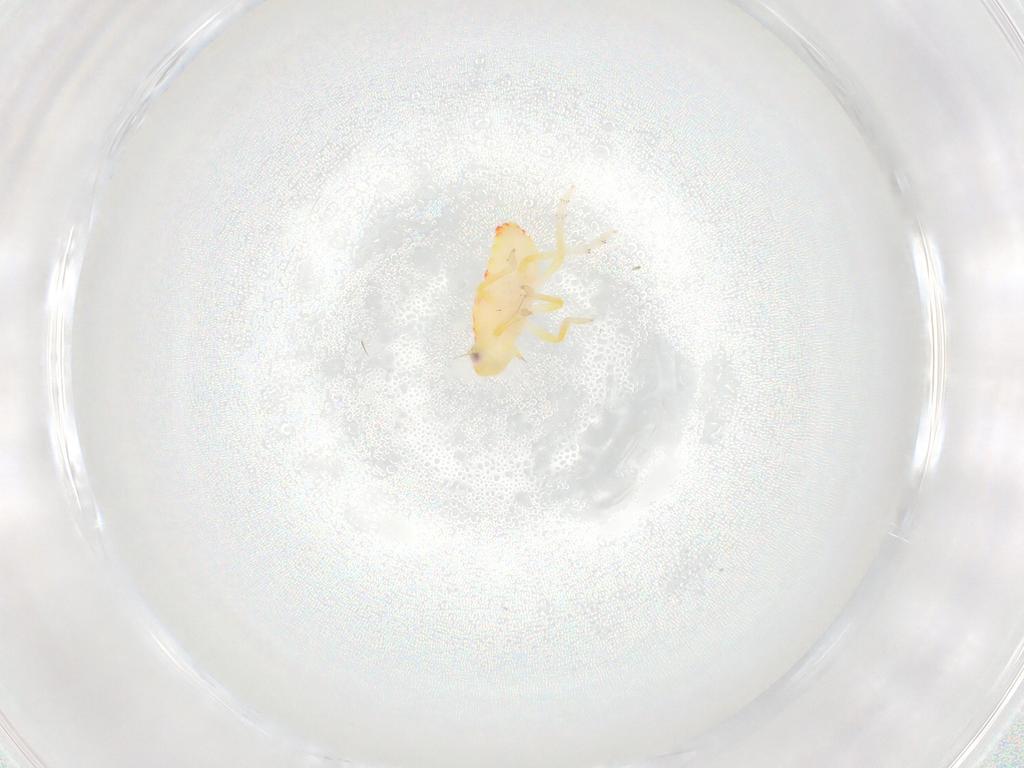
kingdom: Animalia
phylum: Arthropoda
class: Insecta
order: Hemiptera
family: Tropiduchidae
